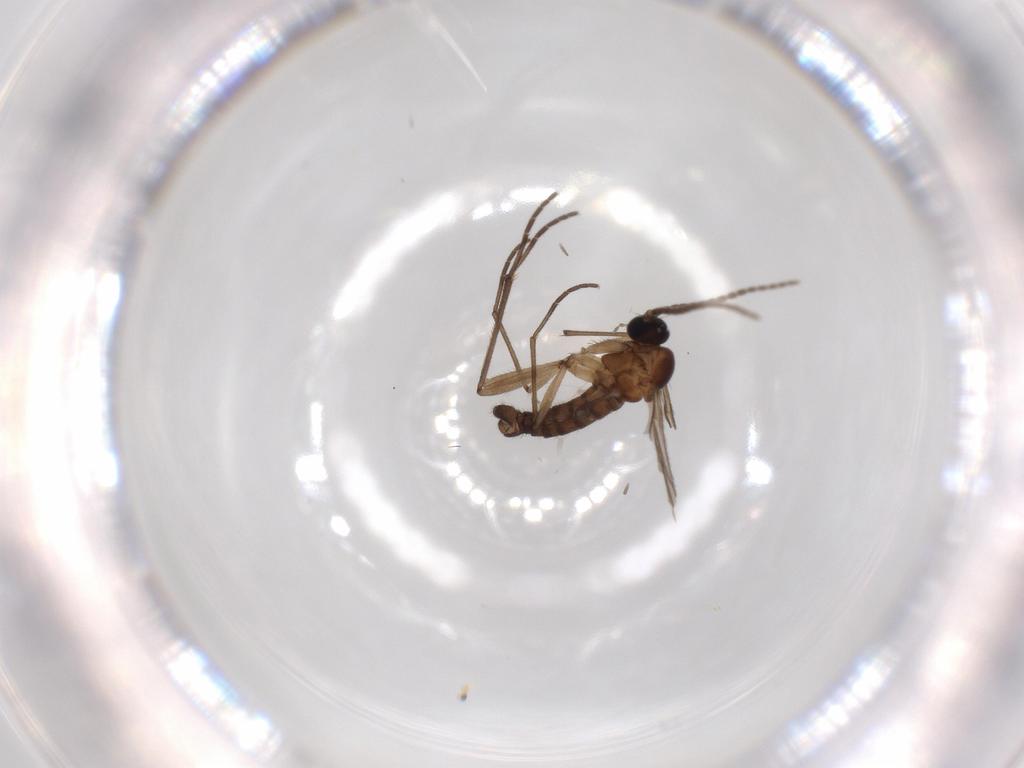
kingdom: Animalia
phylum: Arthropoda
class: Insecta
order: Diptera
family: Sciaridae
